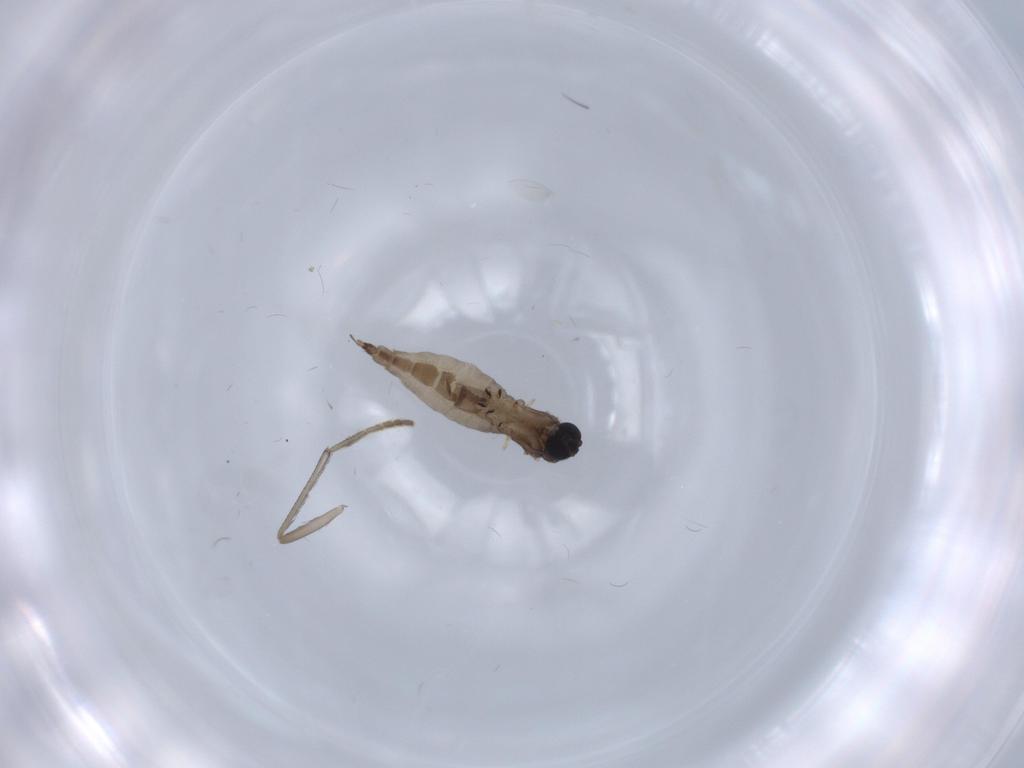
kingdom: Animalia
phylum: Arthropoda
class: Insecta
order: Diptera
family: Sciaridae
